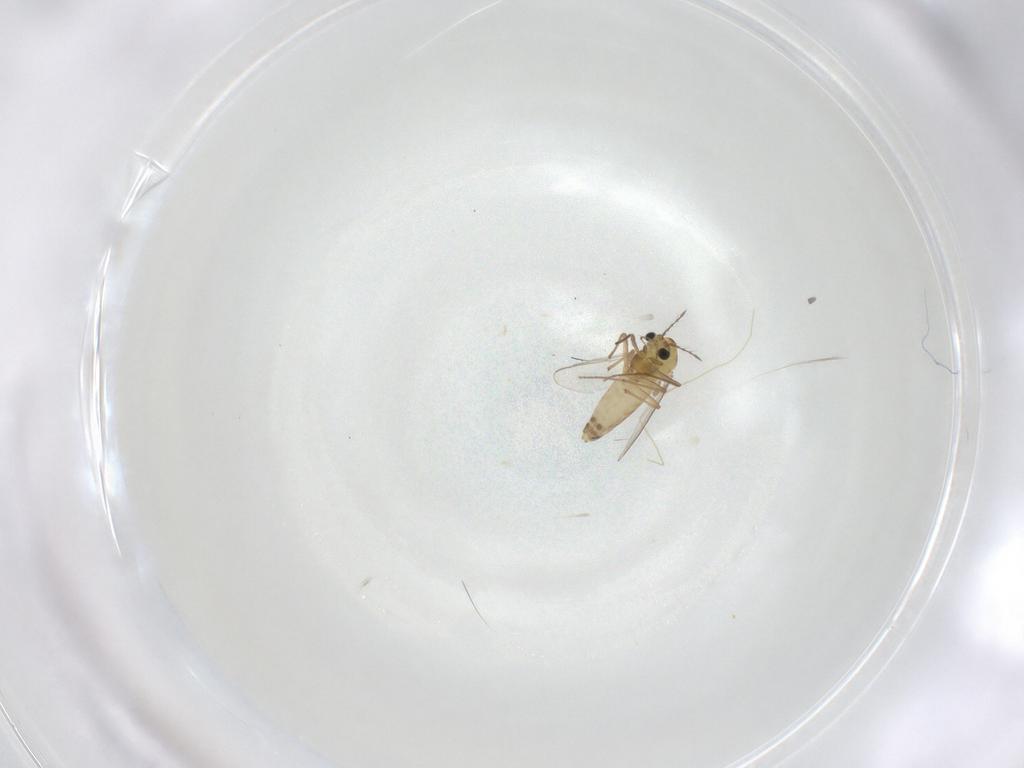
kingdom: Animalia
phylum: Arthropoda
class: Insecta
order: Diptera
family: Chironomidae
